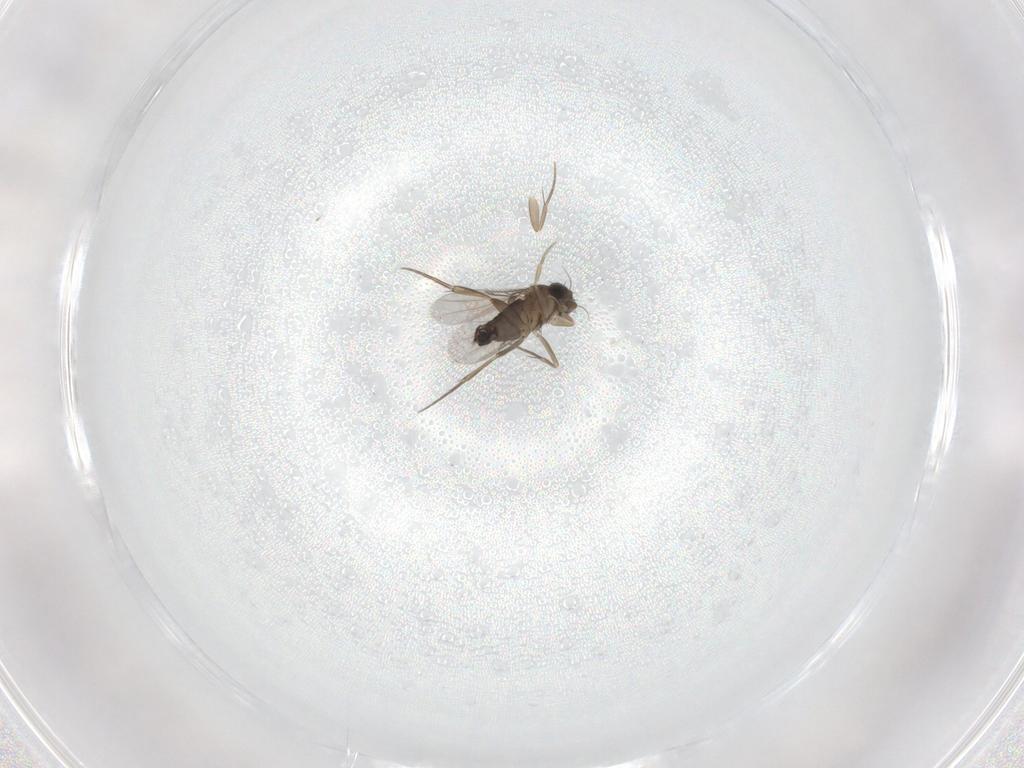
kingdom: Animalia
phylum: Arthropoda
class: Insecta
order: Diptera
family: Phoridae
